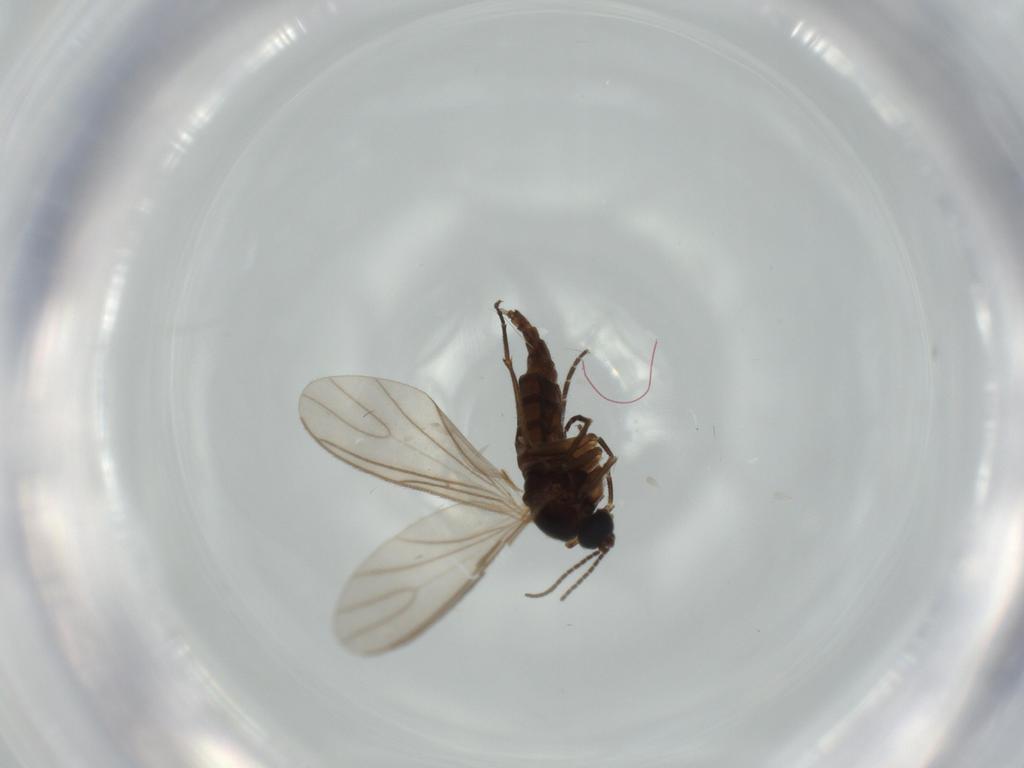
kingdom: Animalia
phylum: Arthropoda
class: Insecta
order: Diptera
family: Sciaridae
